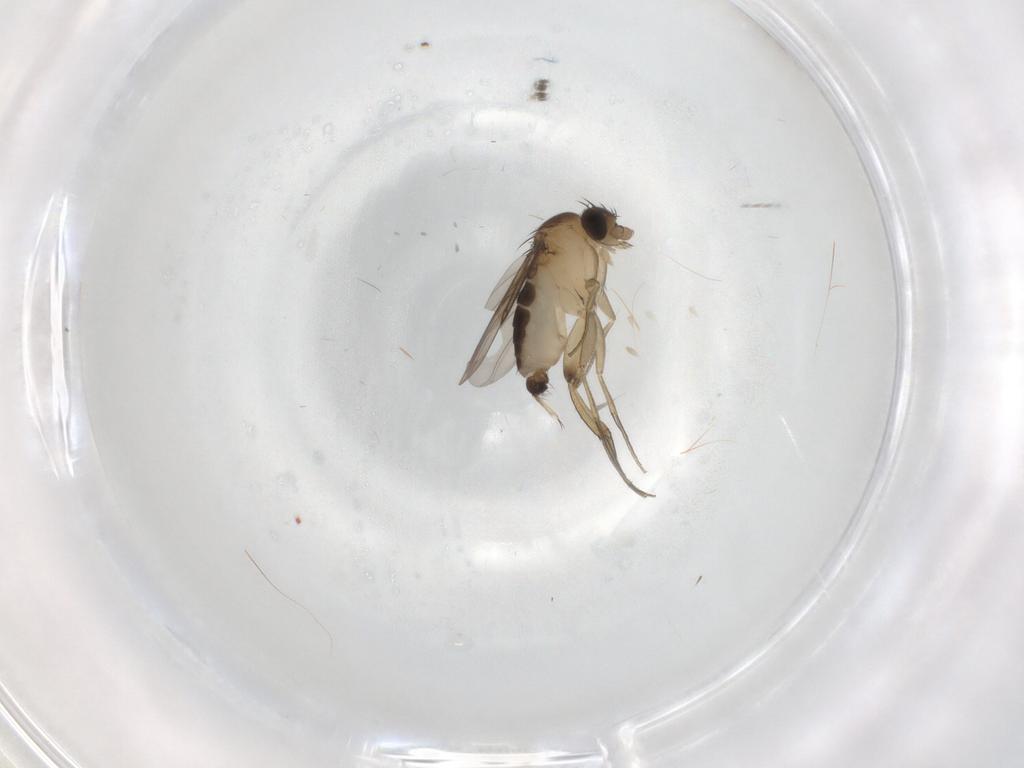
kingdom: Animalia
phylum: Arthropoda
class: Insecta
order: Diptera
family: Phoridae
